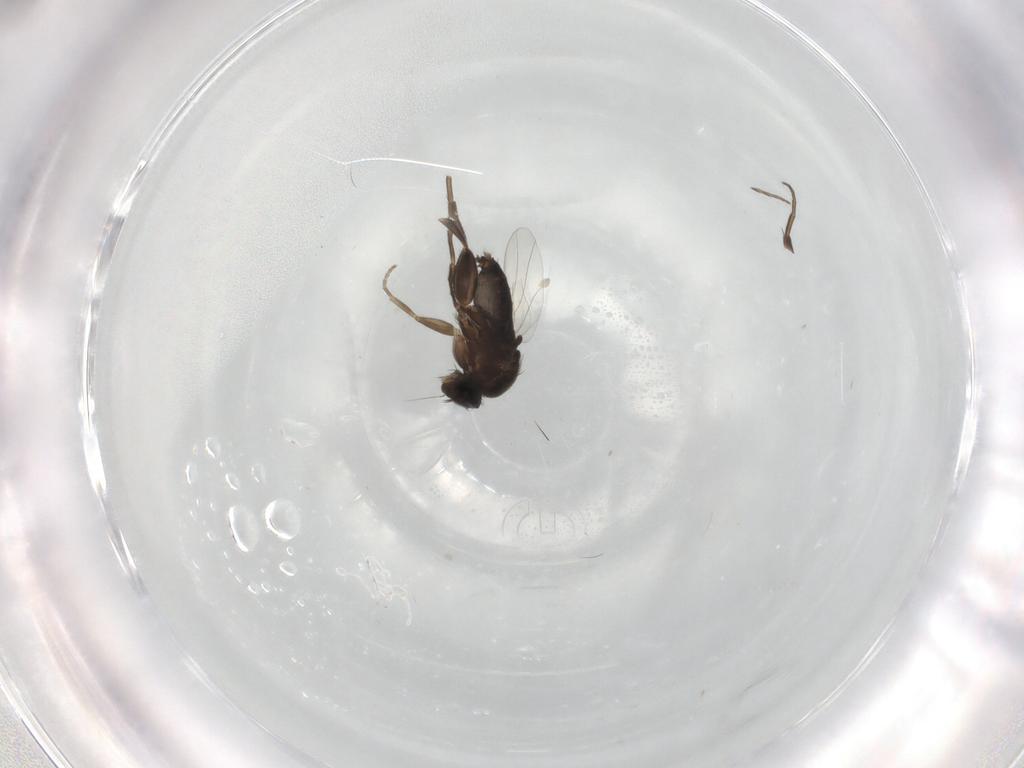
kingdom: Animalia
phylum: Arthropoda
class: Insecta
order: Diptera
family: Phoridae
